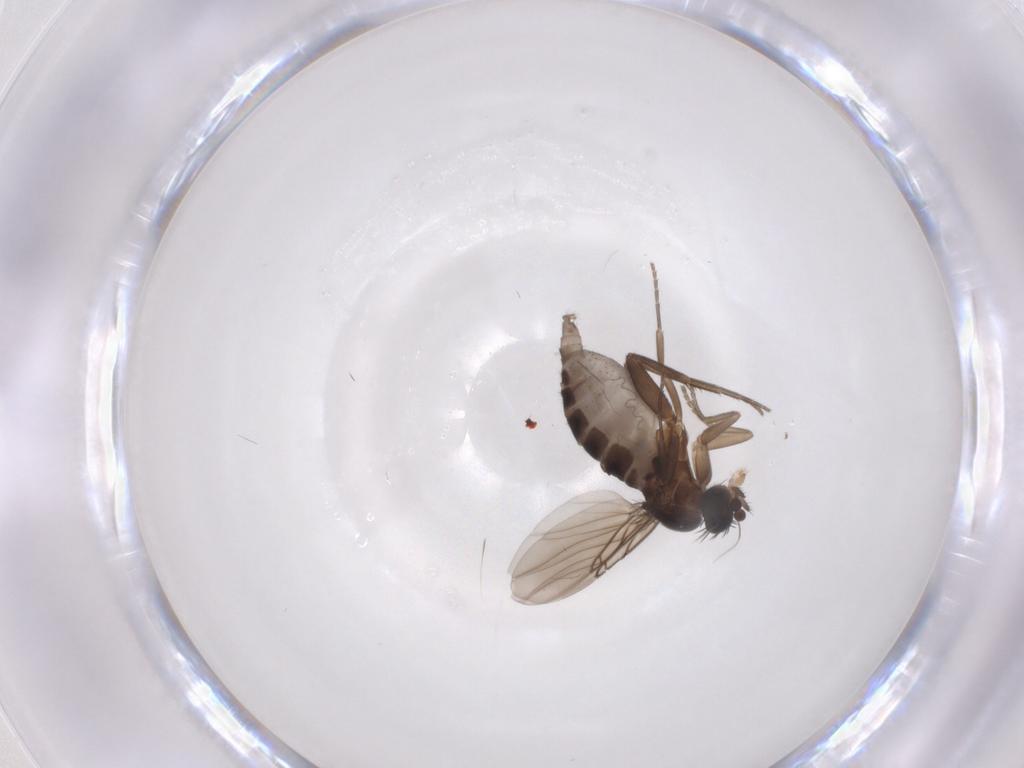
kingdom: Animalia
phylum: Arthropoda
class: Insecta
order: Diptera
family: Phoridae
